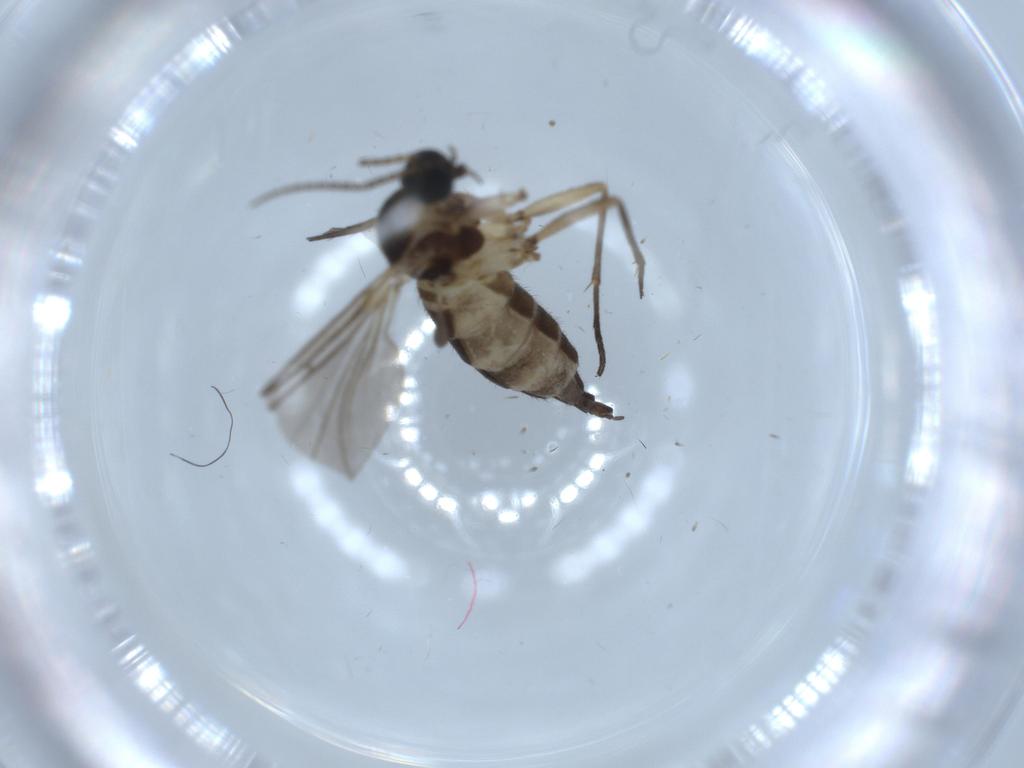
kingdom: Animalia
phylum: Arthropoda
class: Insecta
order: Diptera
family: Sciaridae
